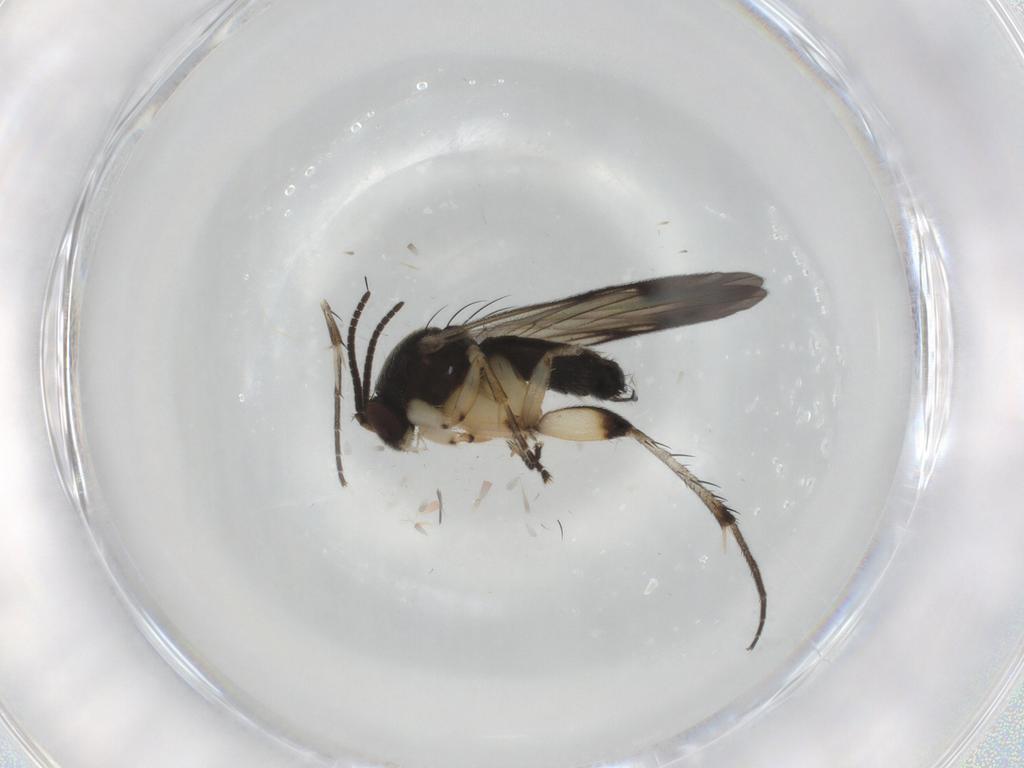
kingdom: Animalia
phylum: Arthropoda
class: Insecta
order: Diptera
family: Mycetophilidae
